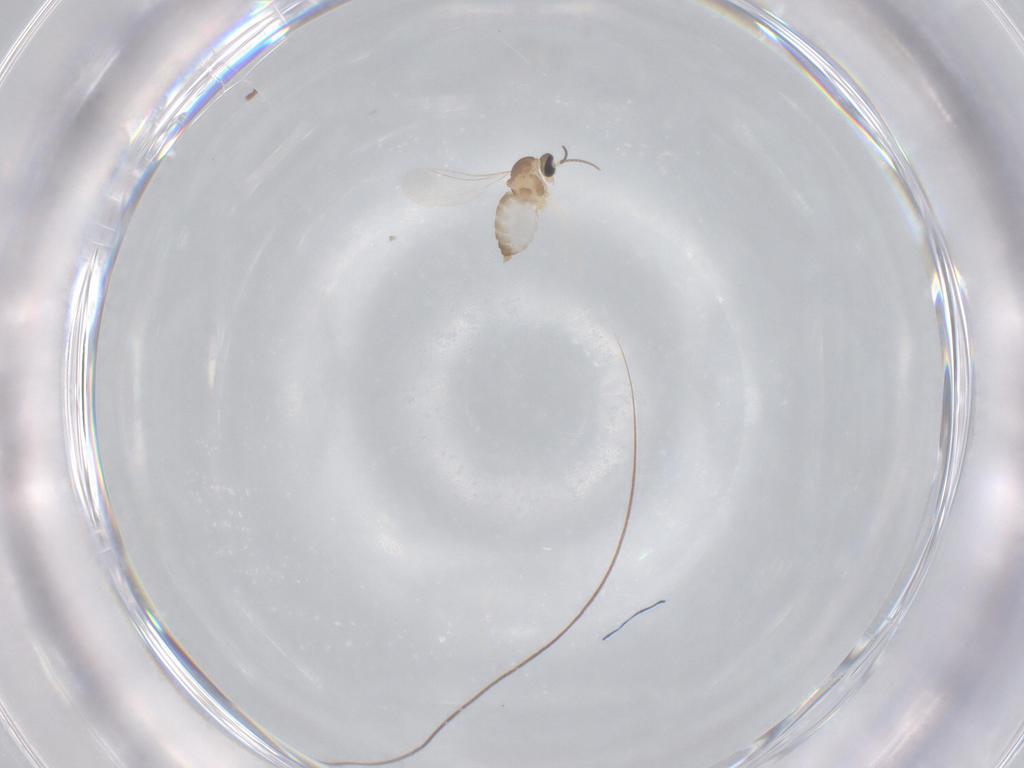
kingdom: Animalia
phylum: Arthropoda
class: Insecta
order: Diptera
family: Cecidomyiidae
